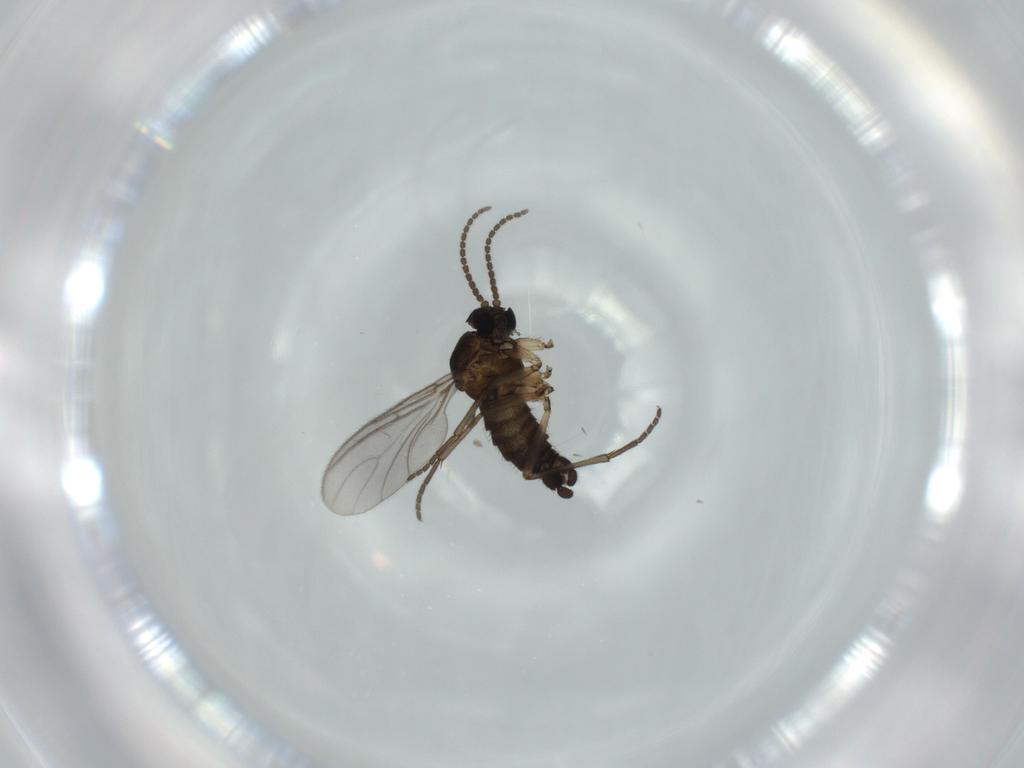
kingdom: Animalia
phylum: Arthropoda
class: Insecta
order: Diptera
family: Sciaridae
